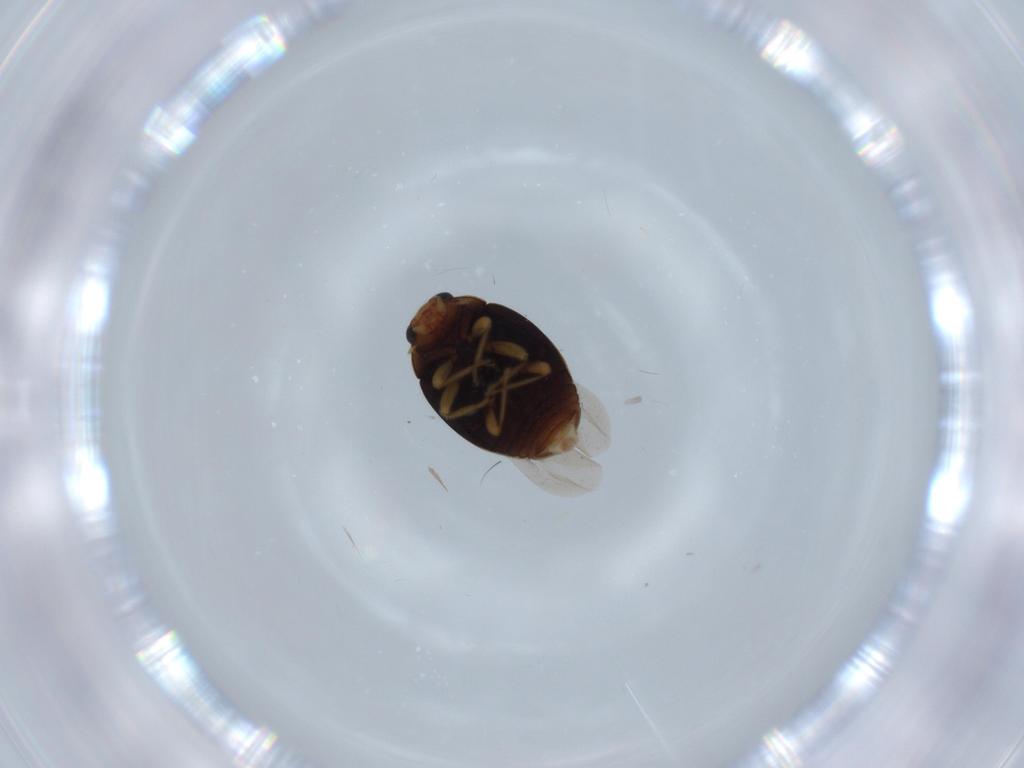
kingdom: Animalia
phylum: Arthropoda
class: Insecta
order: Coleoptera
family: Coccinellidae
